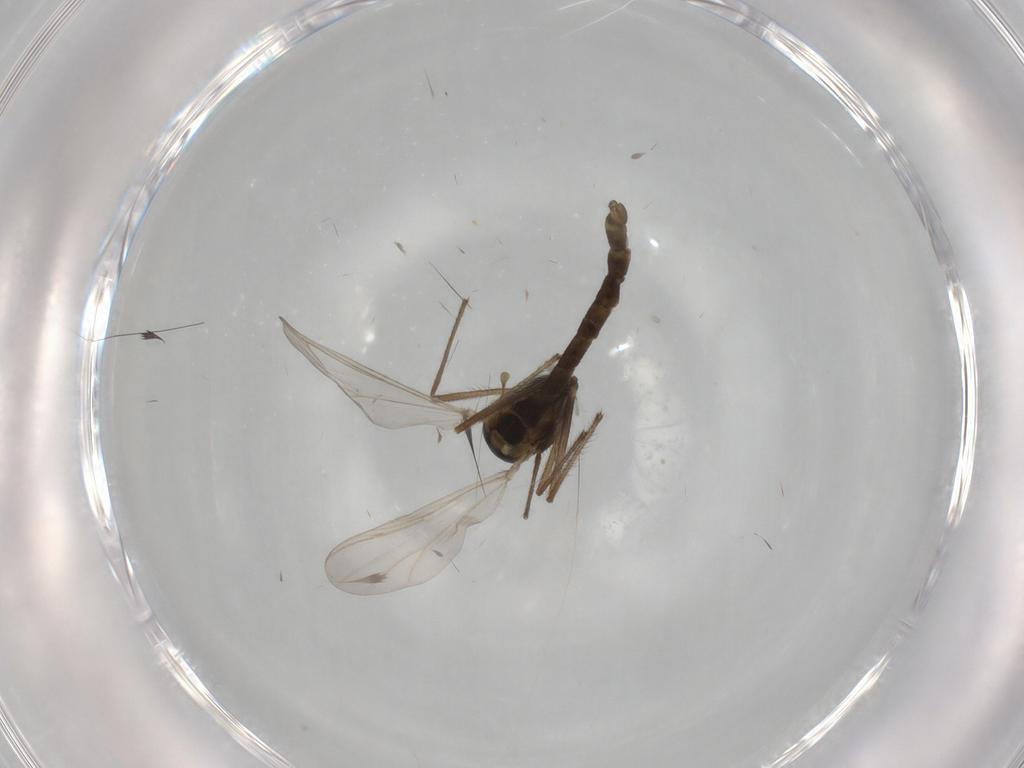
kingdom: Animalia
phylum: Arthropoda
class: Insecta
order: Diptera
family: Chironomidae
